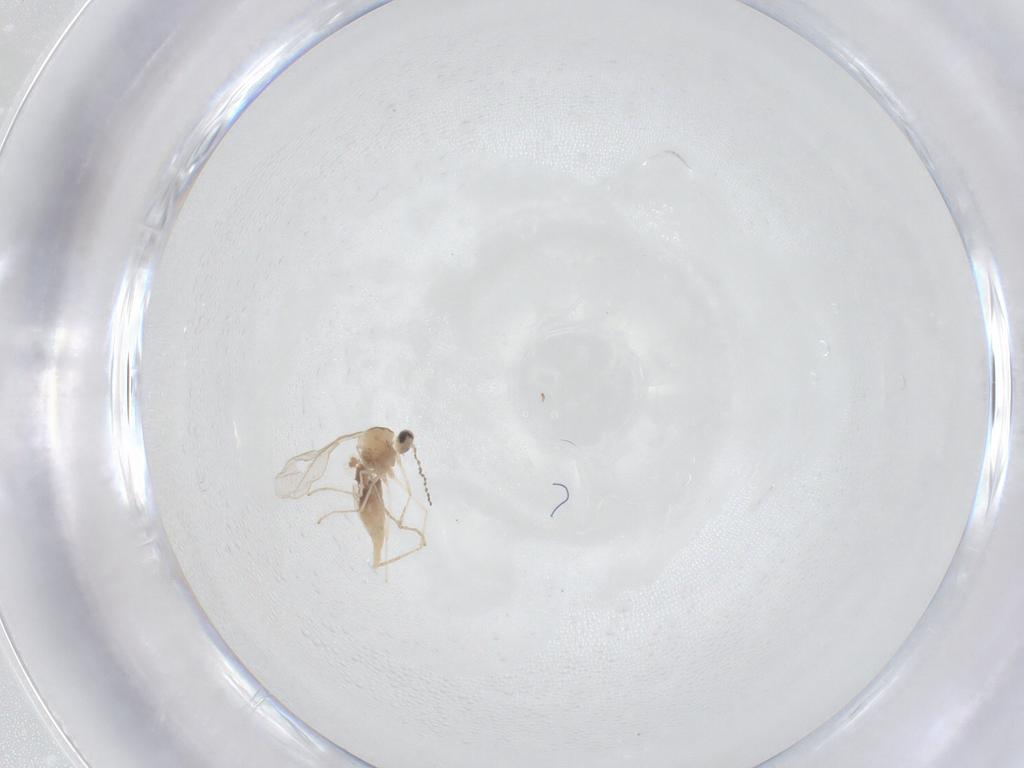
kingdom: Animalia
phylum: Arthropoda
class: Insecta
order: Diptera
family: Cecidomyiidae
